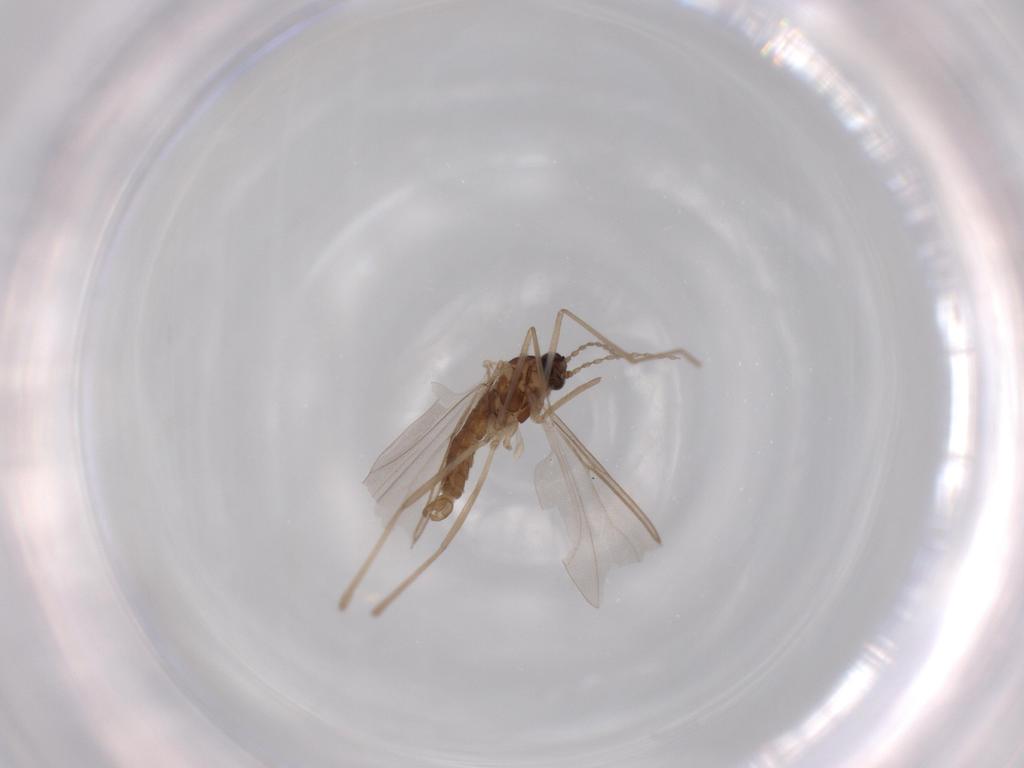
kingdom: Animalia
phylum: Arthropoda
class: Insecta
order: Diptera
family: Cecidomyiidae
